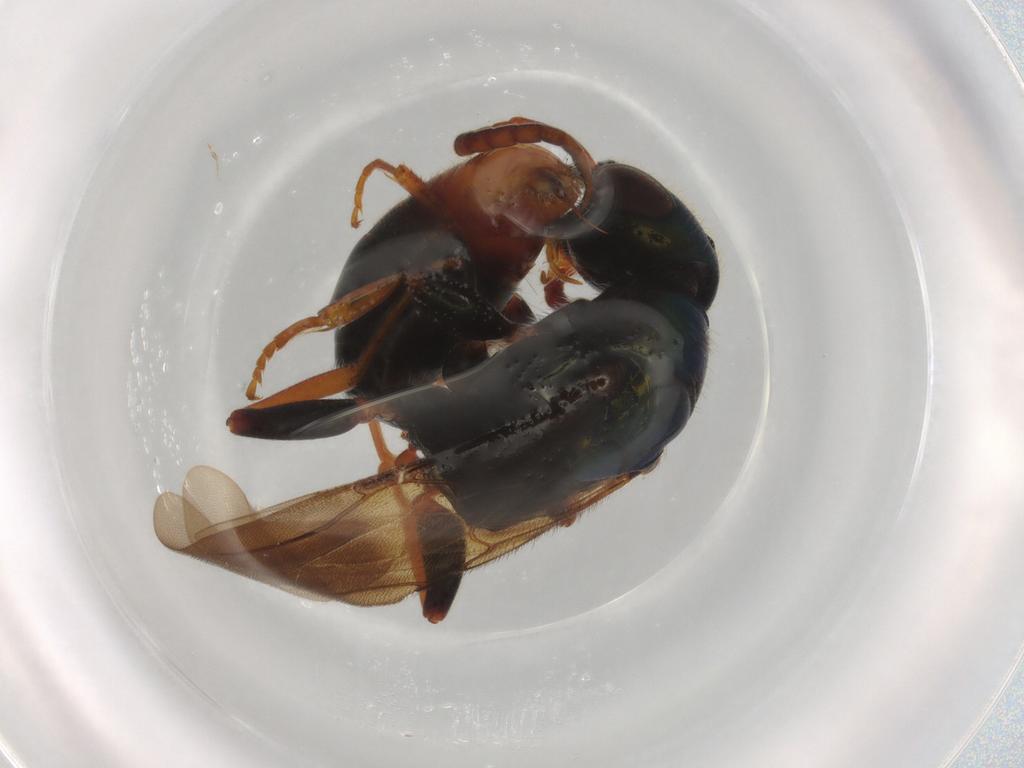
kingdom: Animalia
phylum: Arthropoda
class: Insecta
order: Hymenoptera
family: Bethylidae
